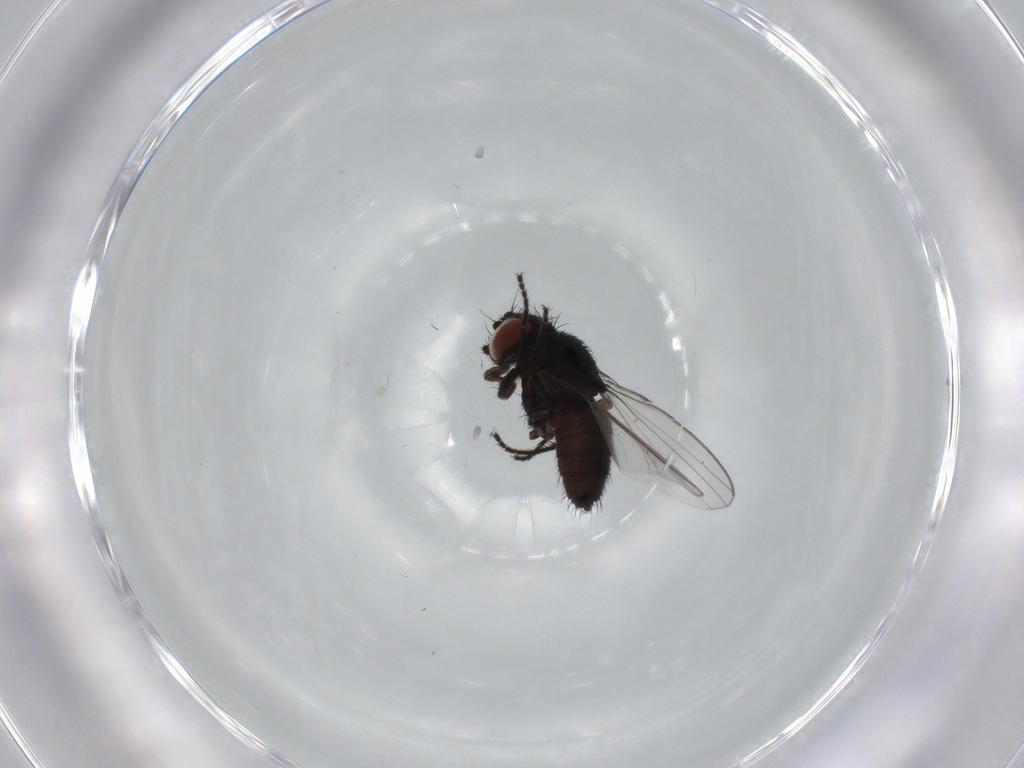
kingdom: Animalia
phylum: Arthropoda
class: Insecta
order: Diptera
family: Milichiidae
